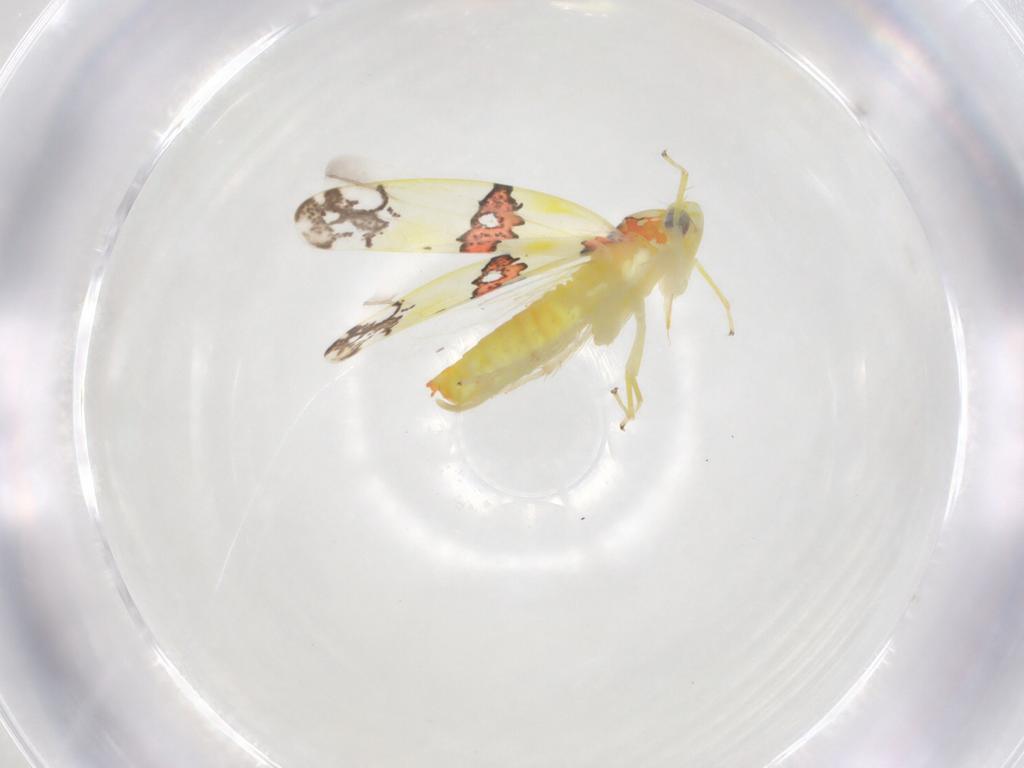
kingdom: Animalia
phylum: Arthropoda
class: Insecta
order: Hemiptera
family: Cicadellidae
